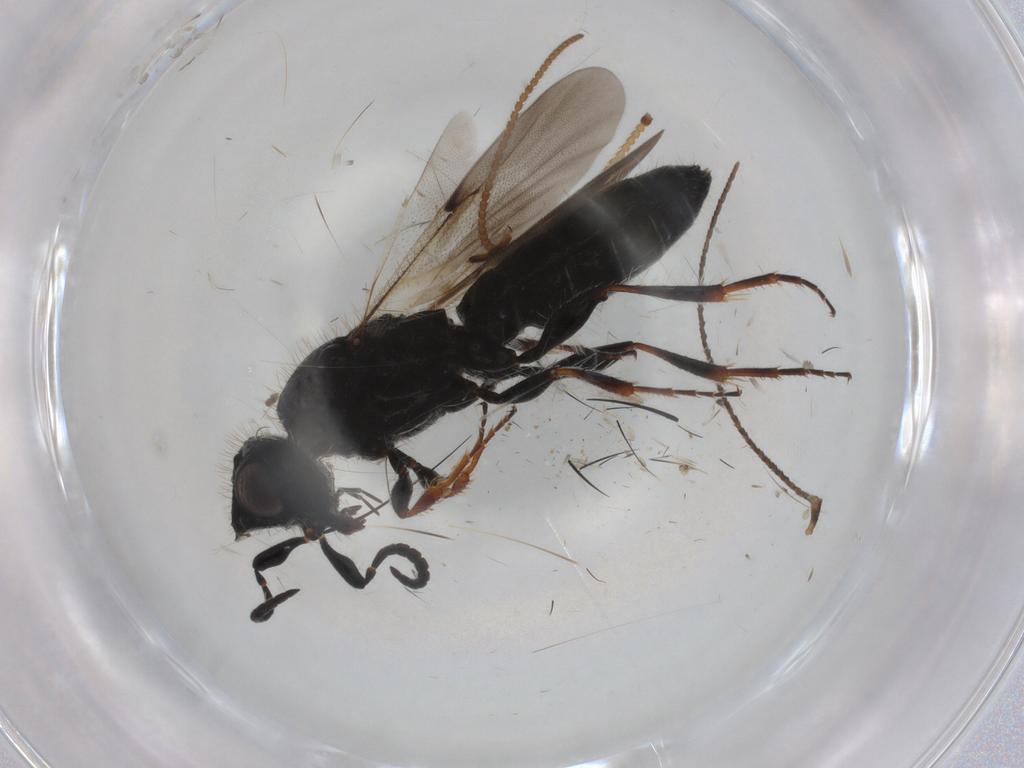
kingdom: Animalia
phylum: Arthropoda
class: Insecta
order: Hymenoptera
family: Scelionidae
